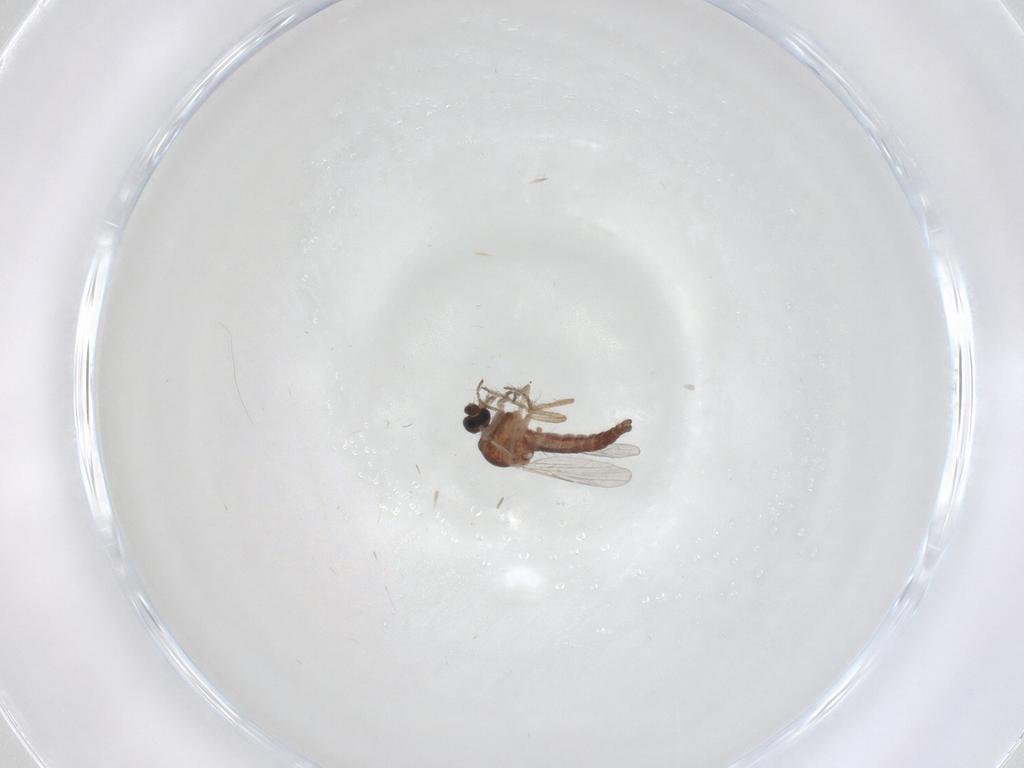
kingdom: Animalia
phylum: Arthropoda
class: Insecta
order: Diptera
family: Ceratopogonidae
